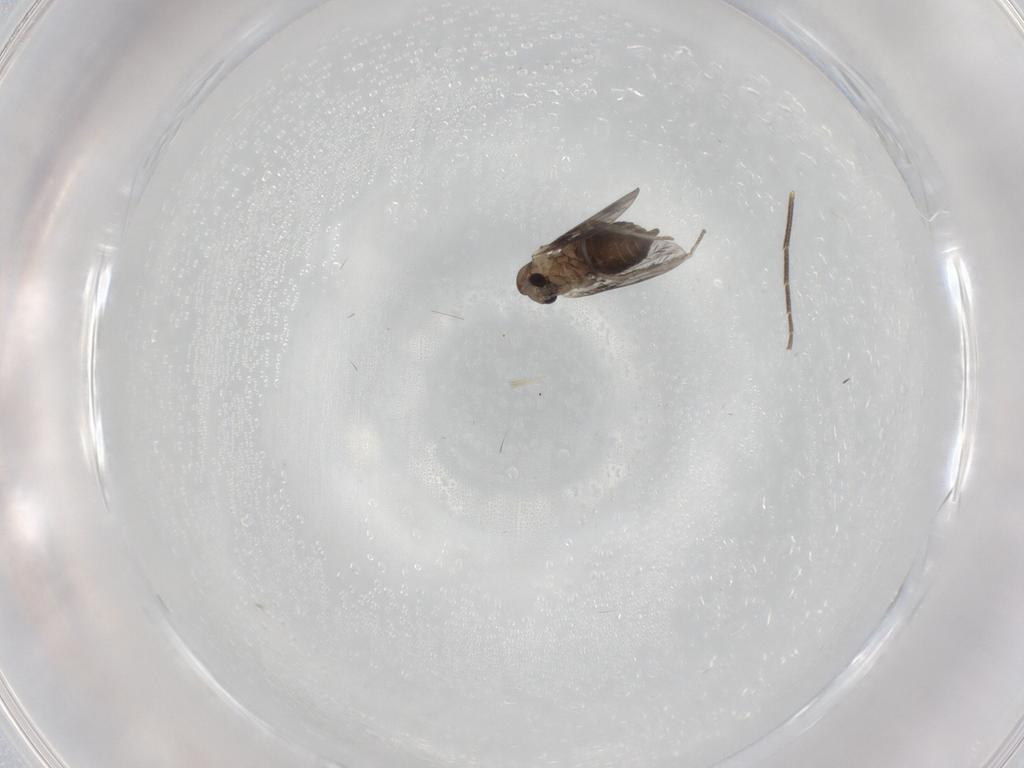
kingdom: Animalia
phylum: Arthropoda
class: Insecta
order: Diptera
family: Mycetophilidae
